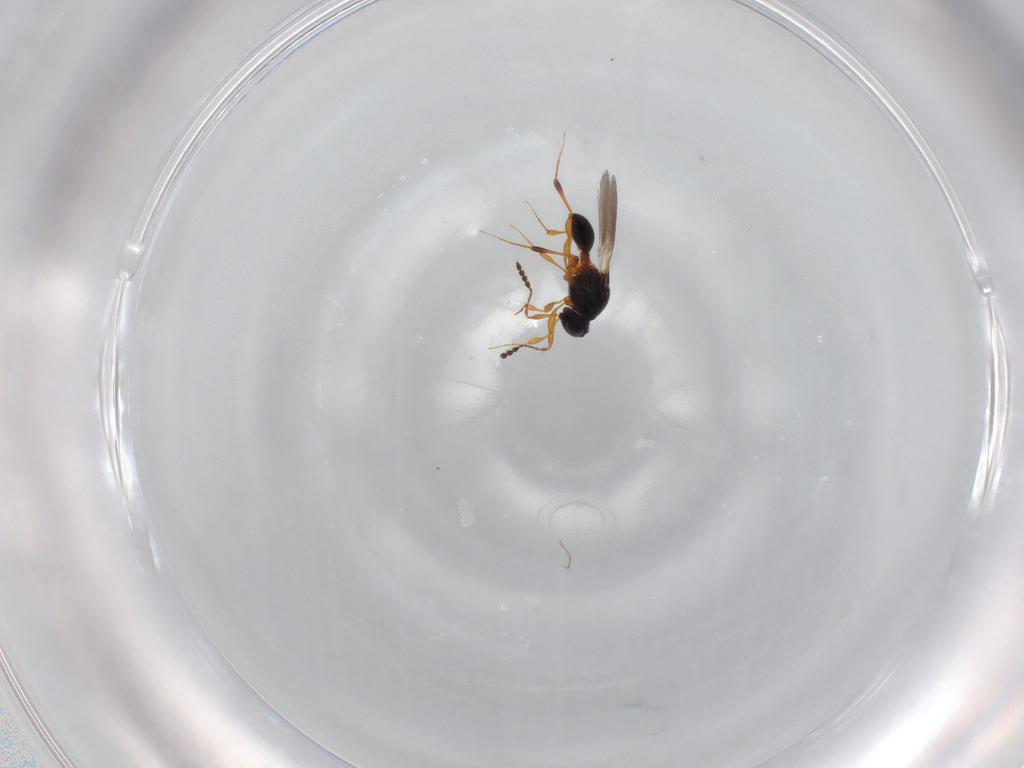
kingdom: Animalia
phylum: Arthropoda
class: Insecta
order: Hymenoptera
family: Platygastridae
